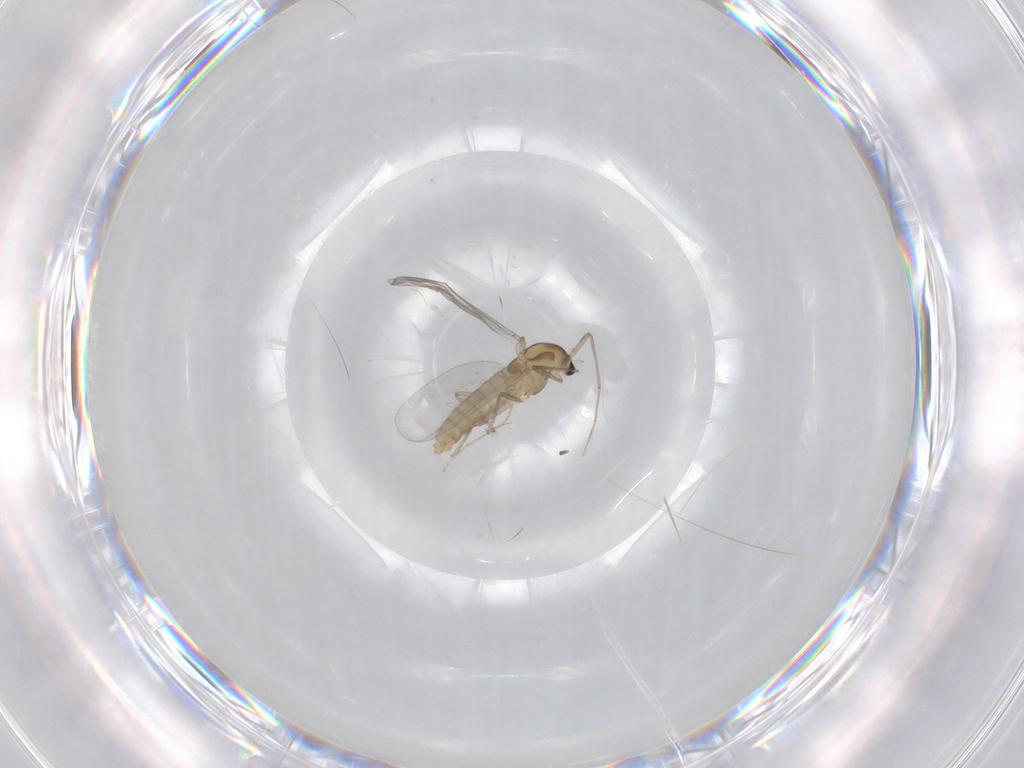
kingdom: Animalia
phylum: Arthropoda
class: Insecta
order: Diptera
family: Chironomidae
